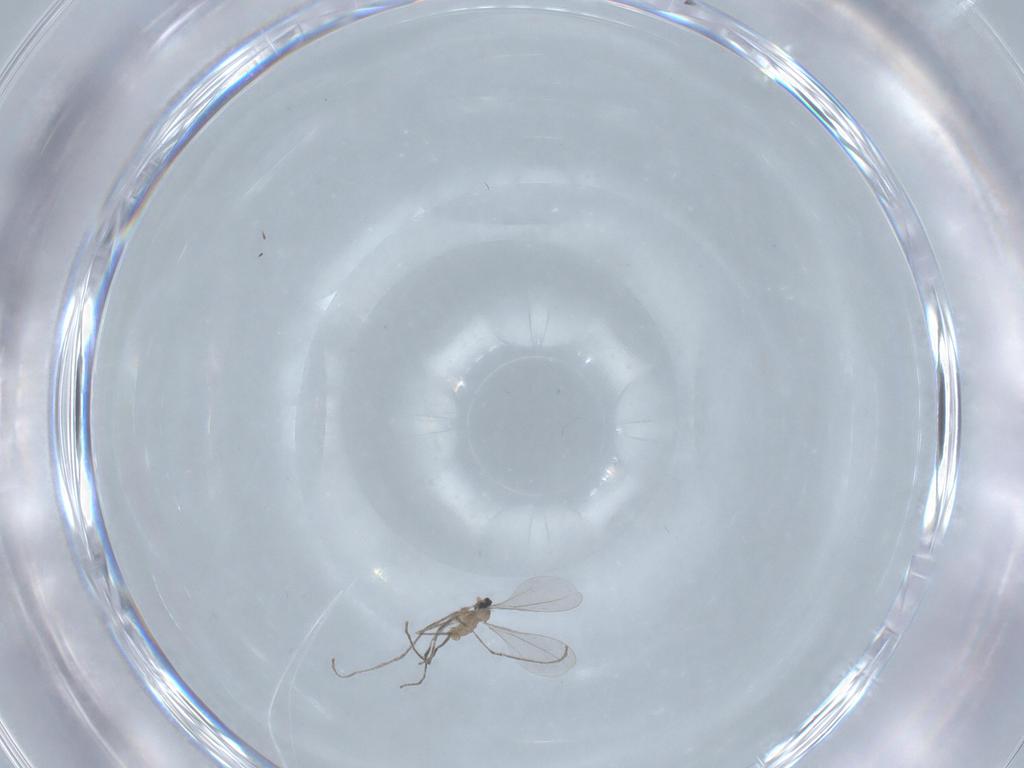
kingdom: Animalia
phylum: Arthropoda
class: Insecta
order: Diptera
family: Cecidomyiidae
